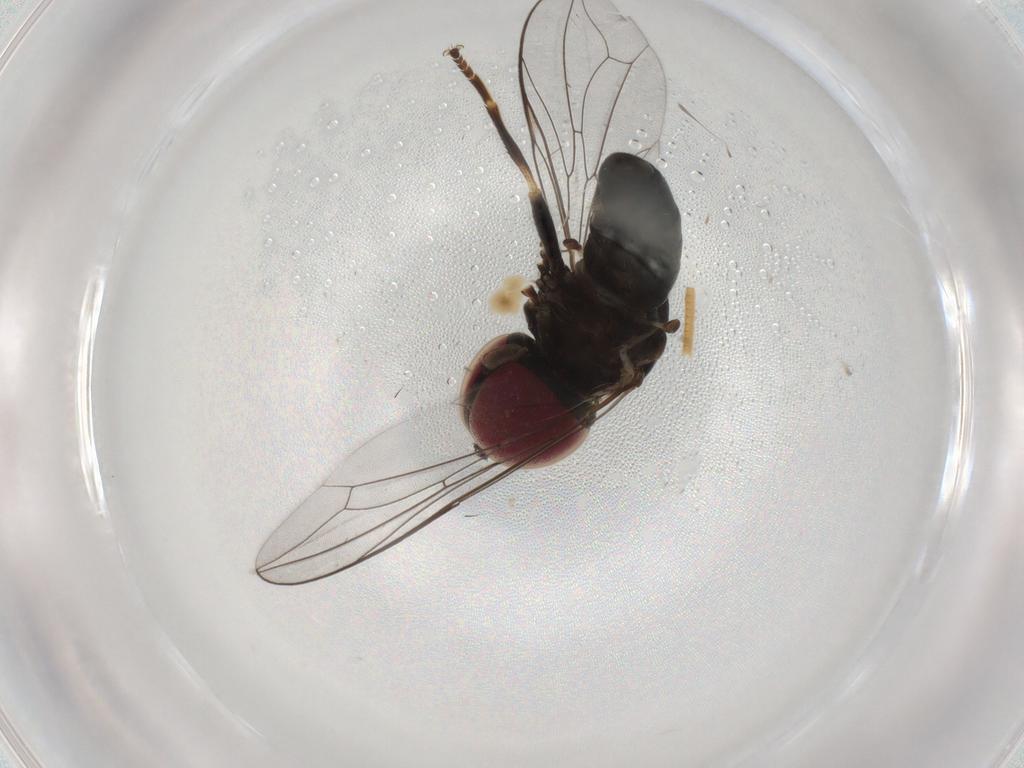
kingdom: Animalia
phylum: Arthropoda
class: Insecta
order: Diptera
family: Pipunculidae
